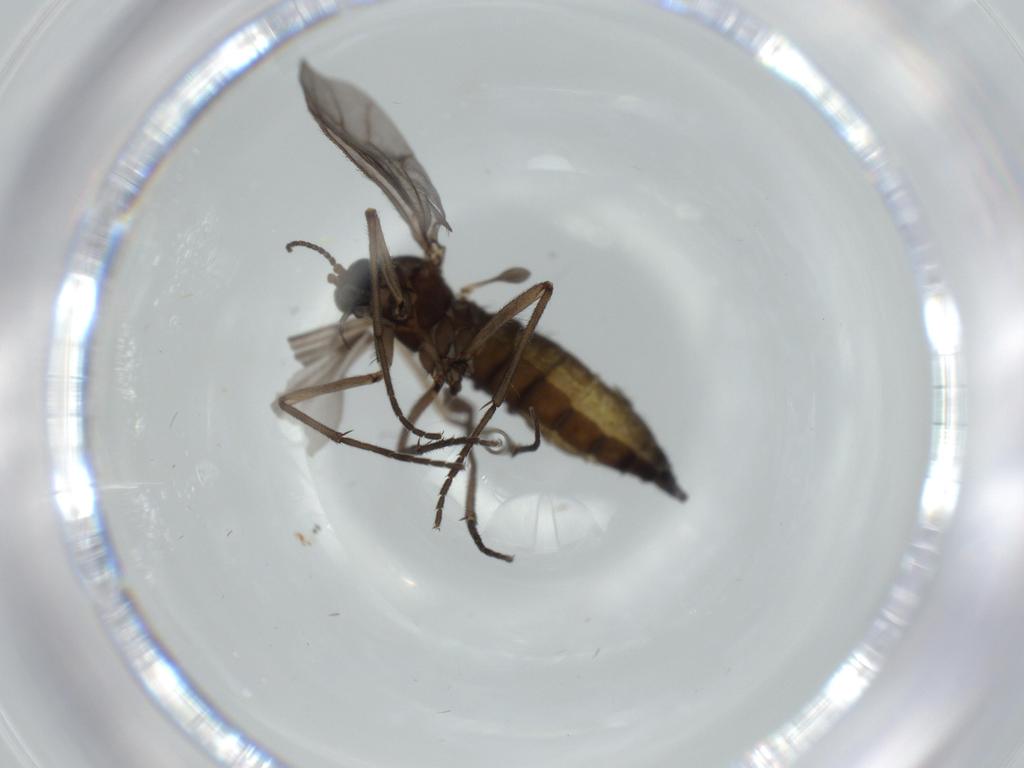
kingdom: Animalia
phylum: Arthropoda
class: Insecta
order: Diptera
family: Sciaridae
